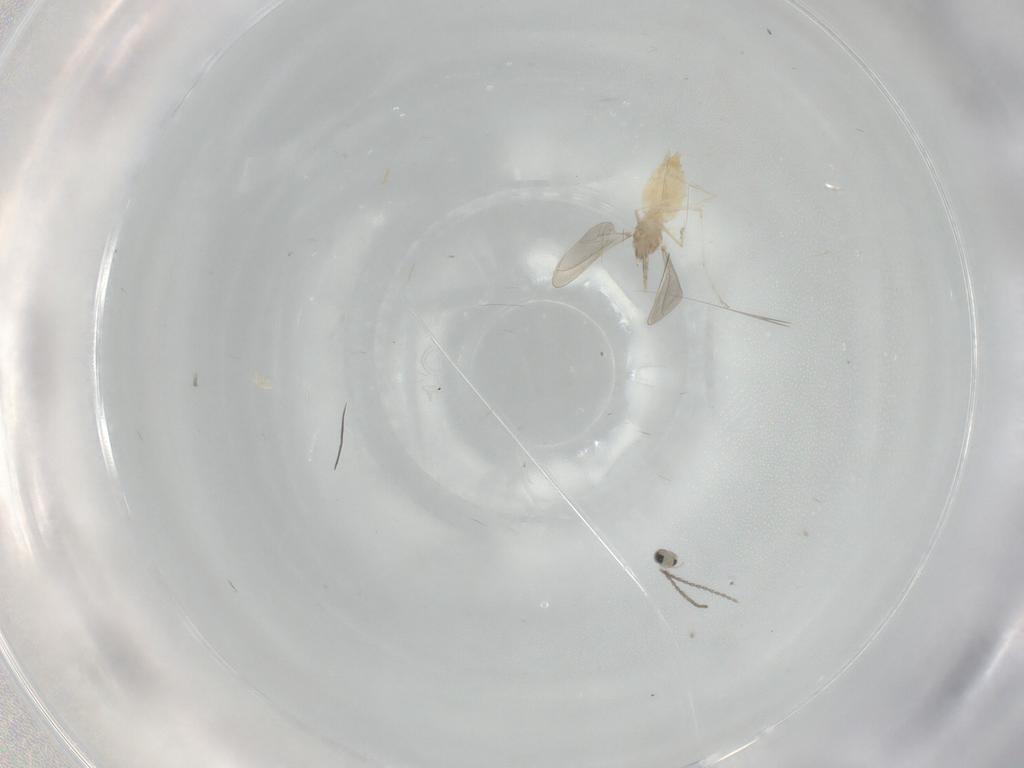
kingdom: Animalia
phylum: Arthropoda
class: Insecta
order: Diptera
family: Cecidomyiidae
